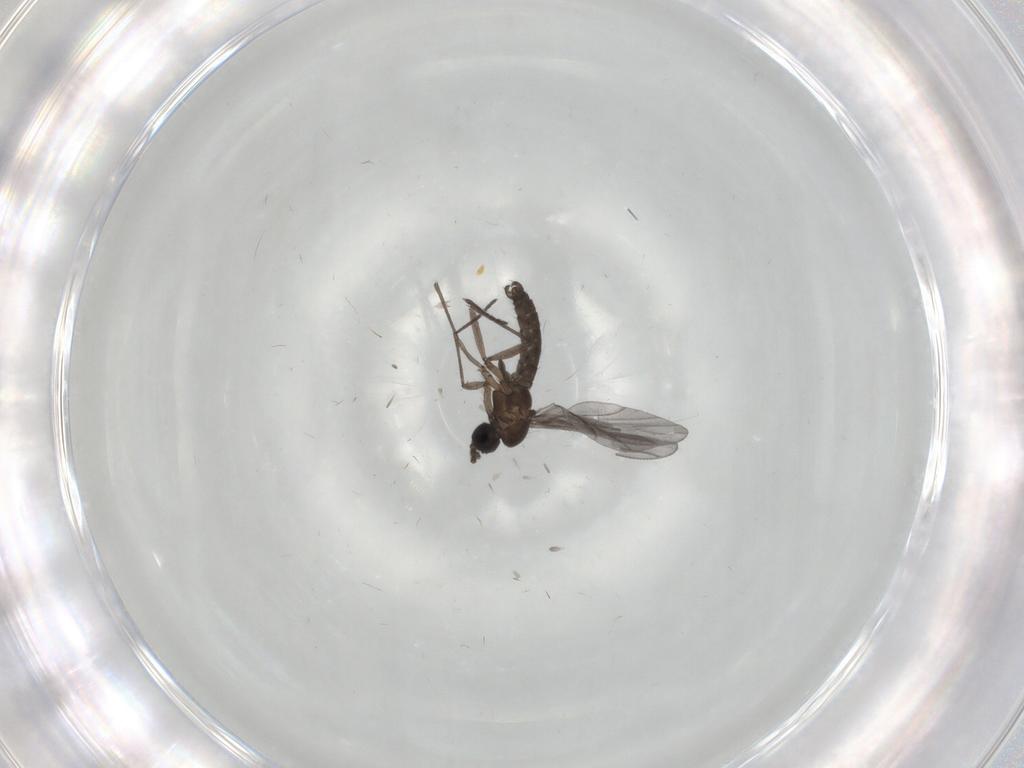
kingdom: Animalia
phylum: Arthropoda
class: Insecta
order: Diptera
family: Sciaridae
